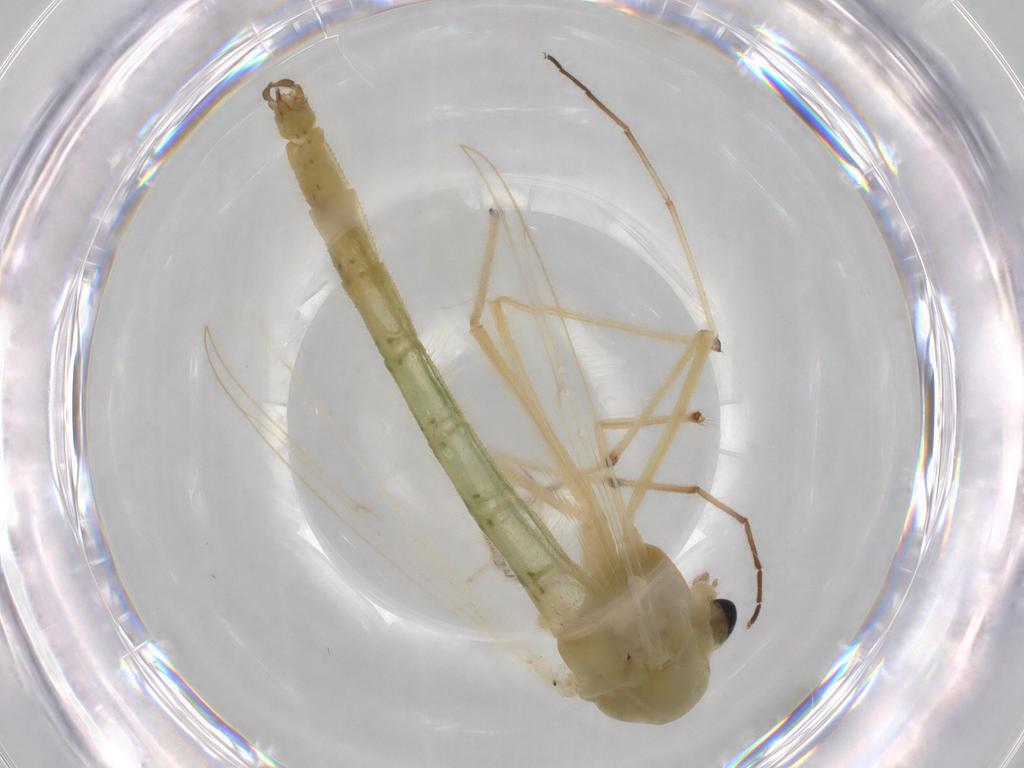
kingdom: Animalia
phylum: Arthropoda
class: Insecta
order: Diptera
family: Chironomidae
